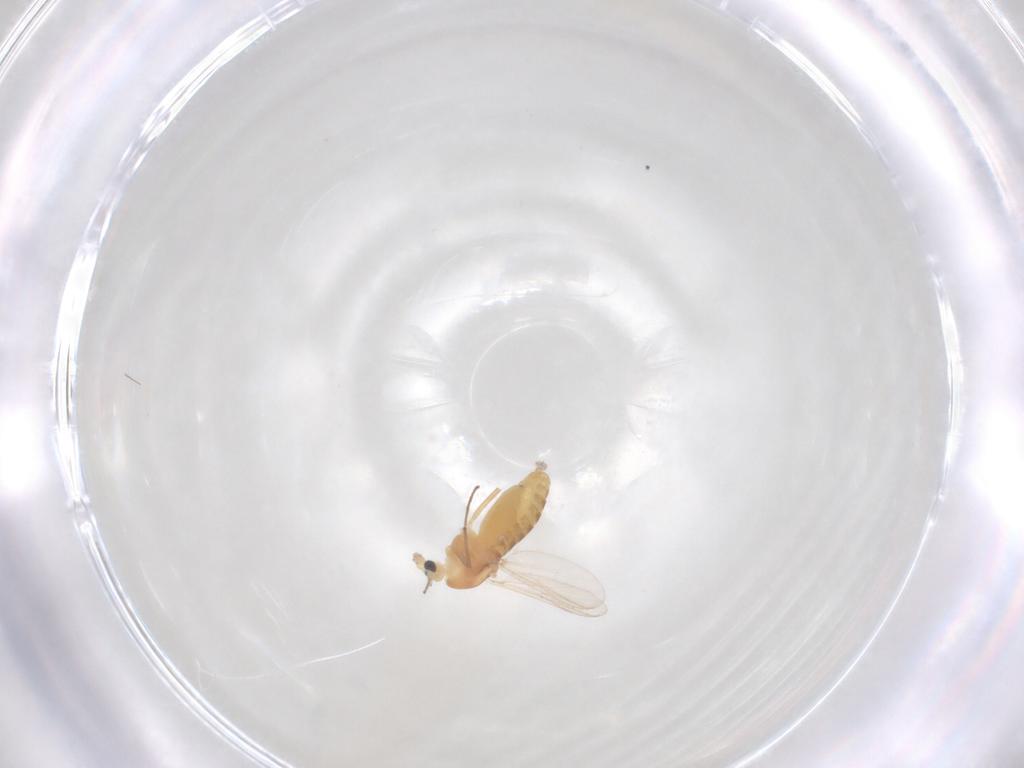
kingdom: Animalia
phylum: Arthropoda
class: Insecta
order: Diptera
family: Chironomidae
